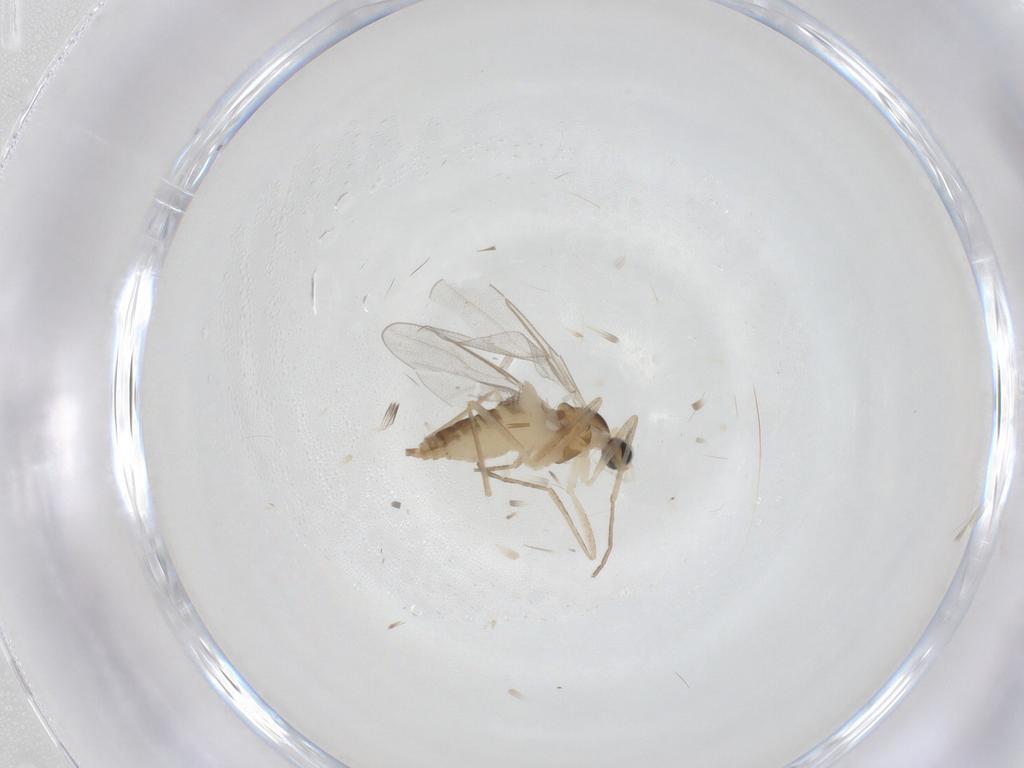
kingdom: Animalia
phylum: Arthropoda
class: Insecta
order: Diptera
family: Cecidomyiidae
